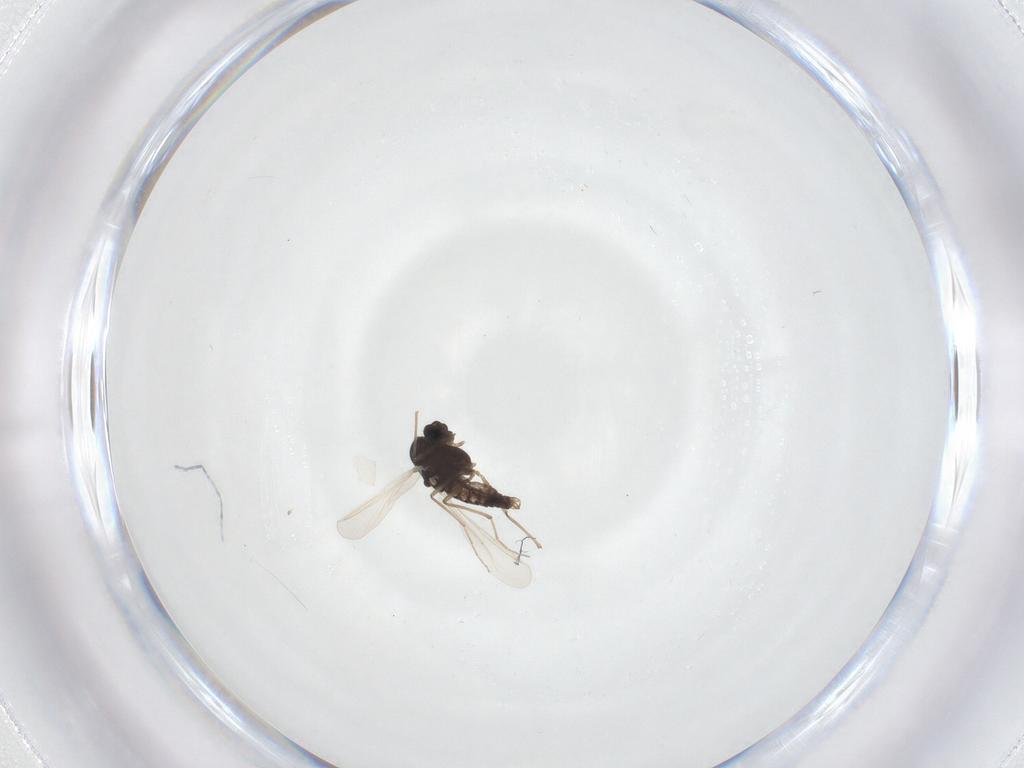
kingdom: Animalia
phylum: Arthropoda
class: Insecta
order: Diptera
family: Chironomidae
